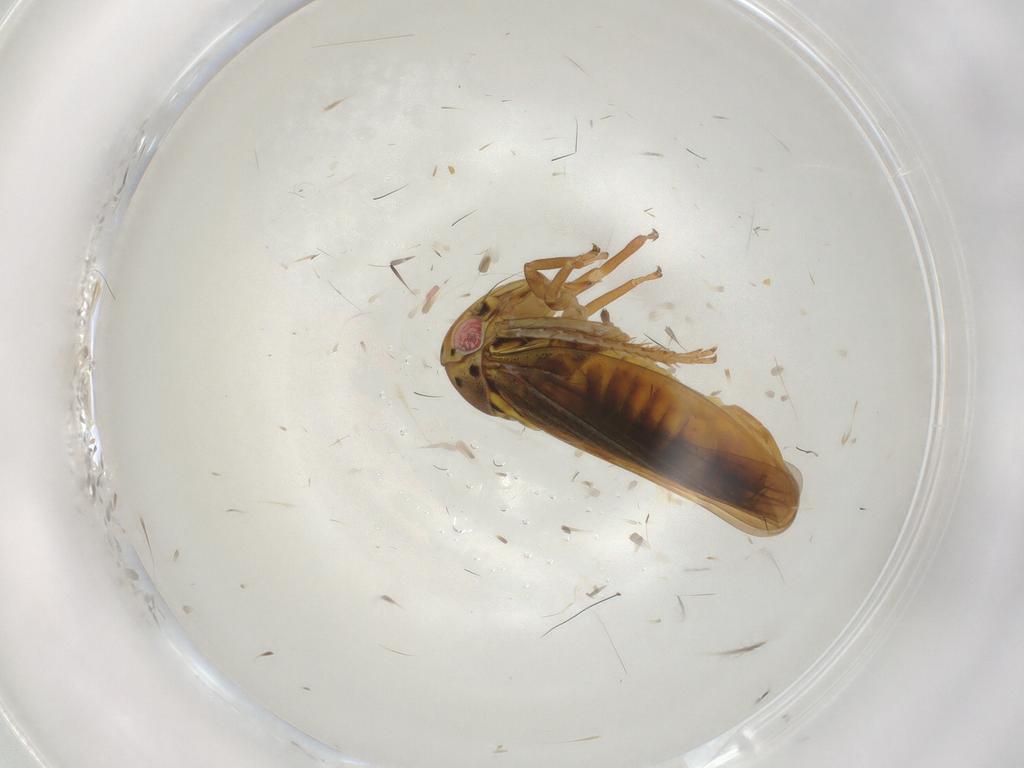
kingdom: Animalia
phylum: Arthropoda
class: Insecta
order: Hemiptera
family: Cicadellidae
